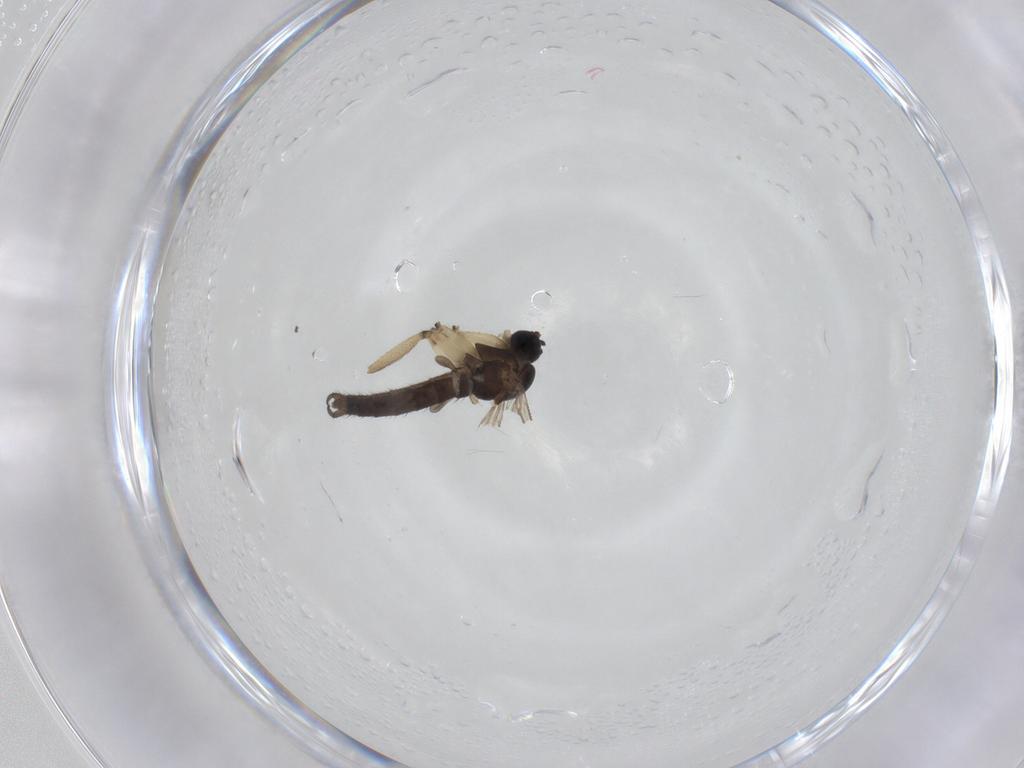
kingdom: Animalia
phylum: Arthropoda
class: Insecta
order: Diptera
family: Sciaridae
